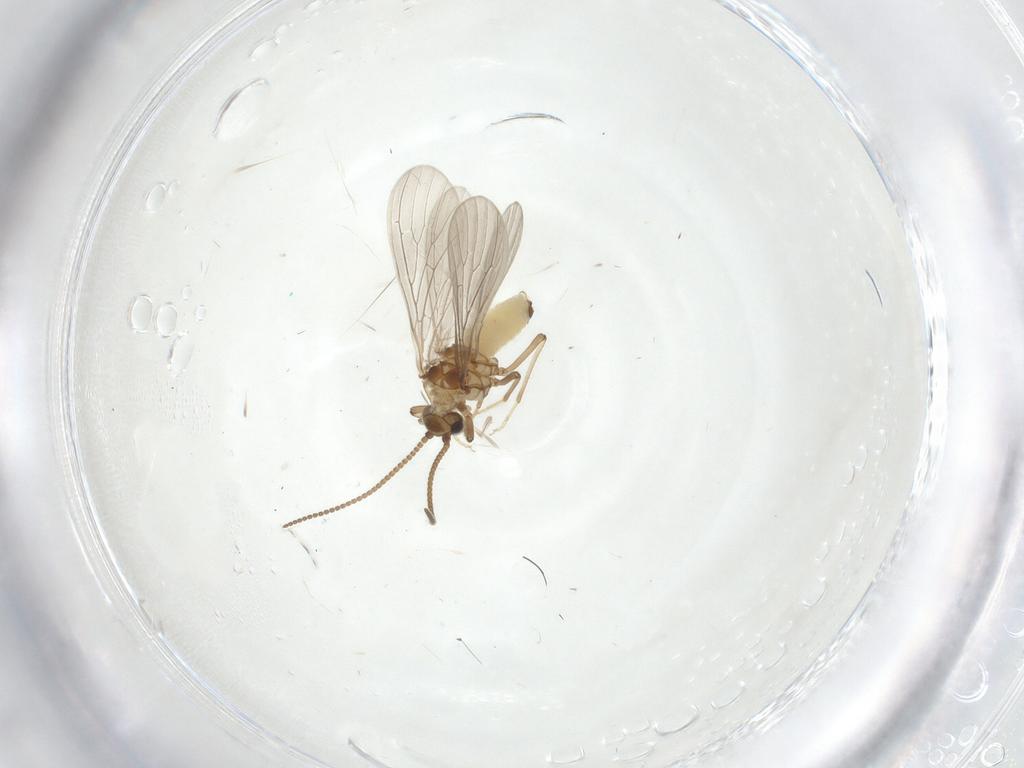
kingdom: Animalia
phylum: Arthropoda
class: Insecta
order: Neuroptera
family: Coniopterygidae
